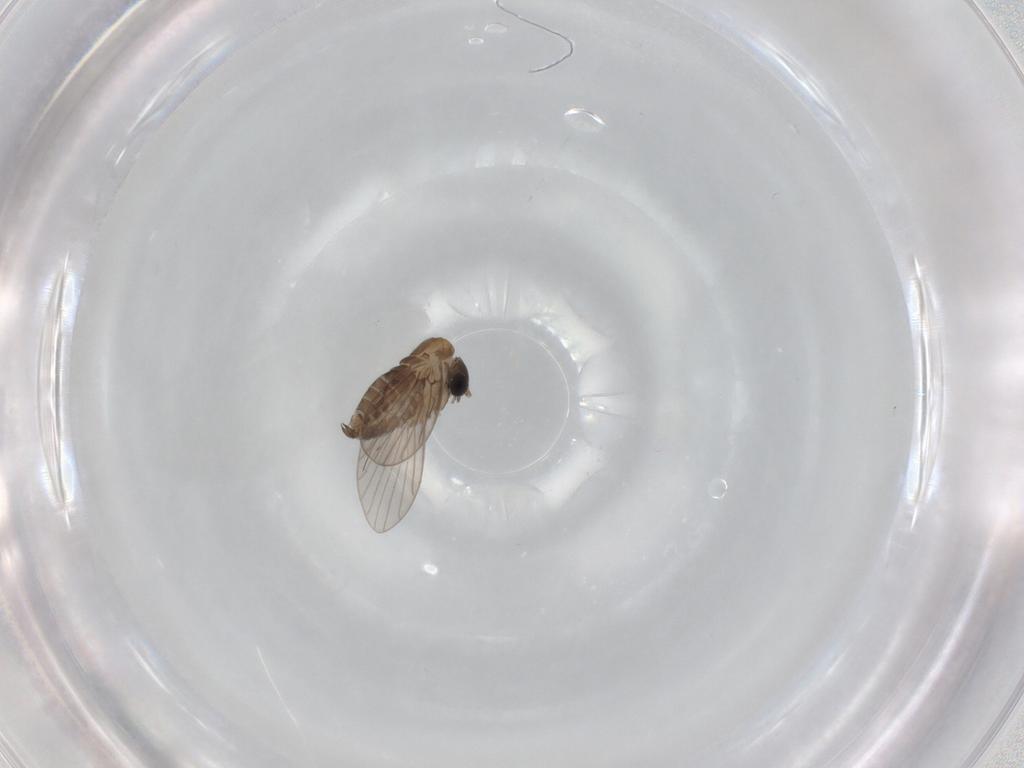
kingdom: Animalia
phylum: Arthropoda
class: Insecta
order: Diptera
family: Psychodidae
